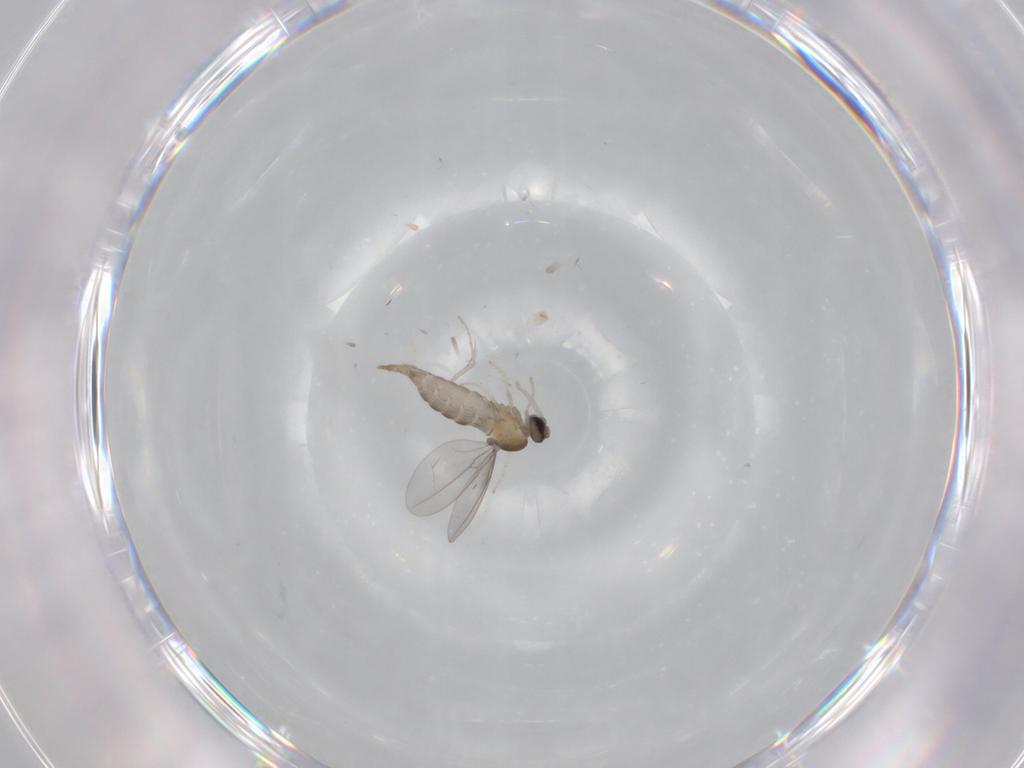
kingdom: Animalia
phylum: Arthropoda
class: Insecta
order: Diptera
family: Cecidomyiidae
